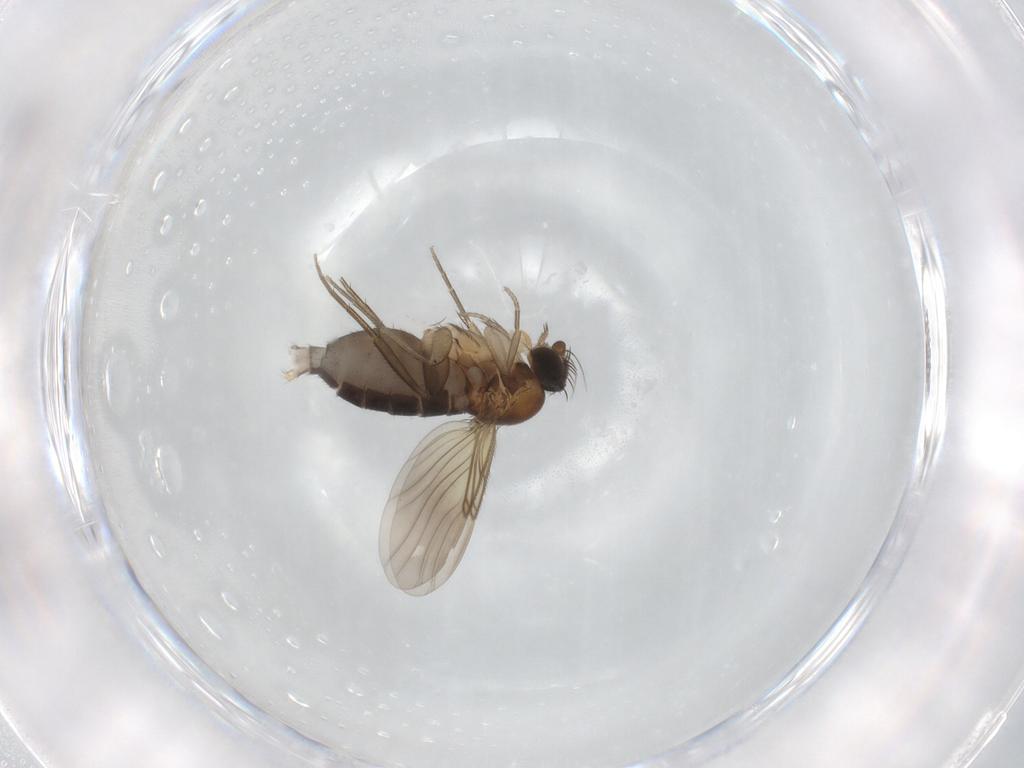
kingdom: Animalia
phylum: Arthropoda
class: Insecta
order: Diptera
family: Phoridae
